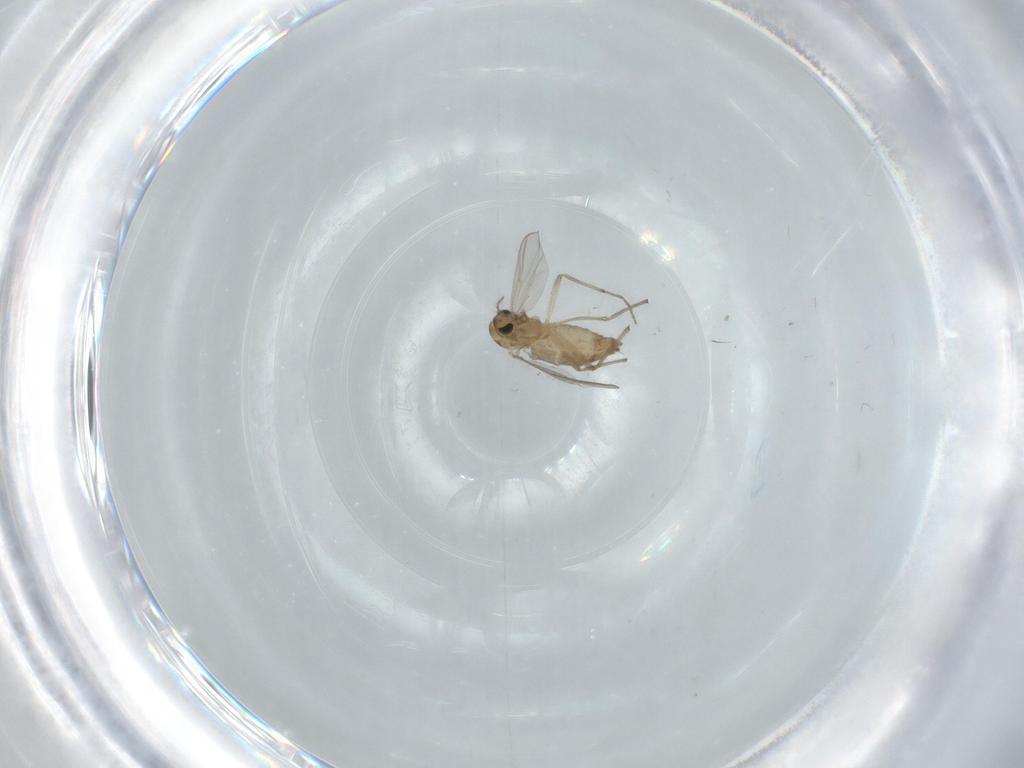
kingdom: Animalia
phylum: Arthropoda
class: Insecta
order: Diptera
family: Chironomidae
